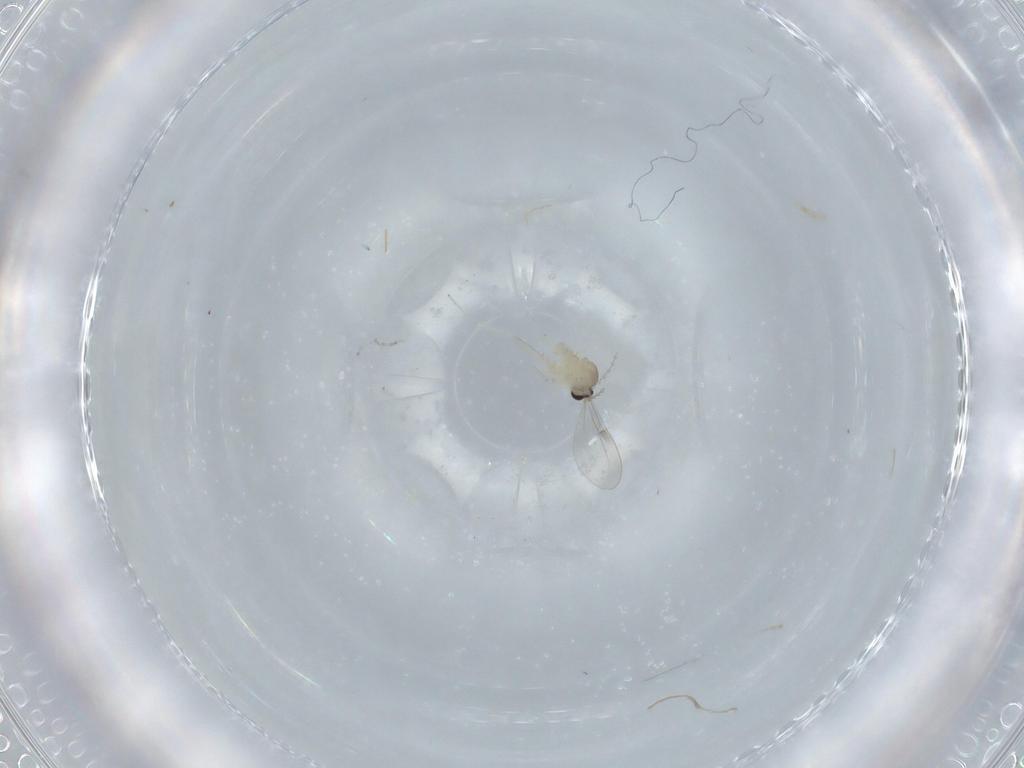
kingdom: Animalia
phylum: Arthropoda
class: Insecta
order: Diptera
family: Cecidomyiidae
